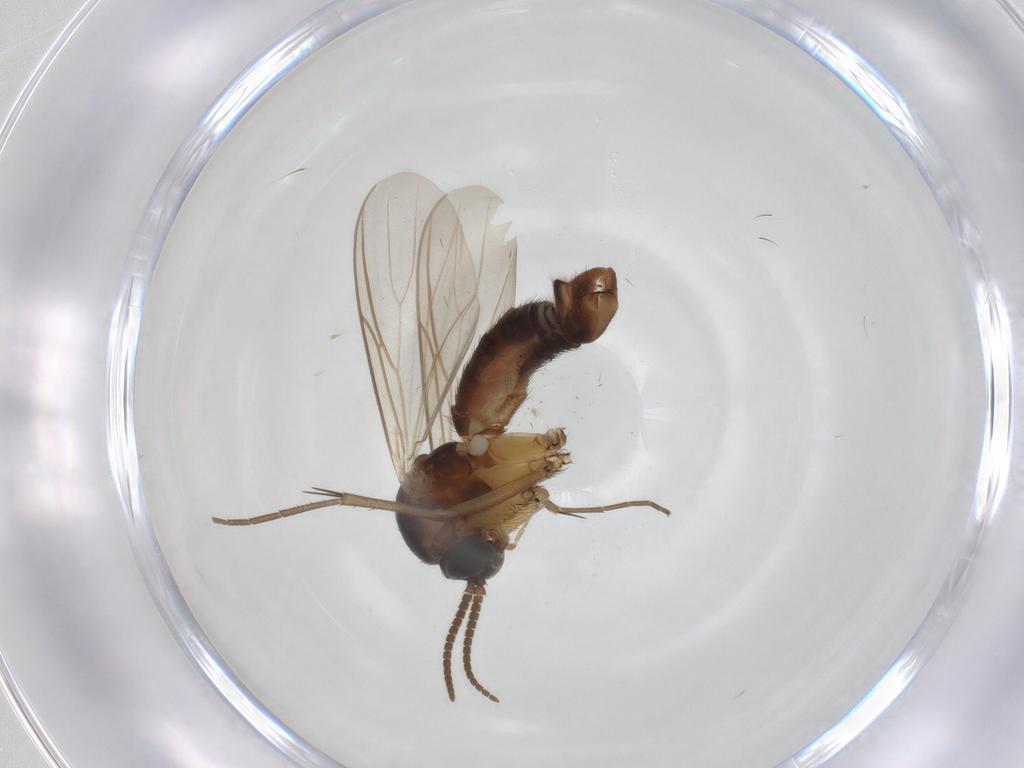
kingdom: Animalia
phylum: Arthropoda
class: Insecta
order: Diptera
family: Mycetophilidae
